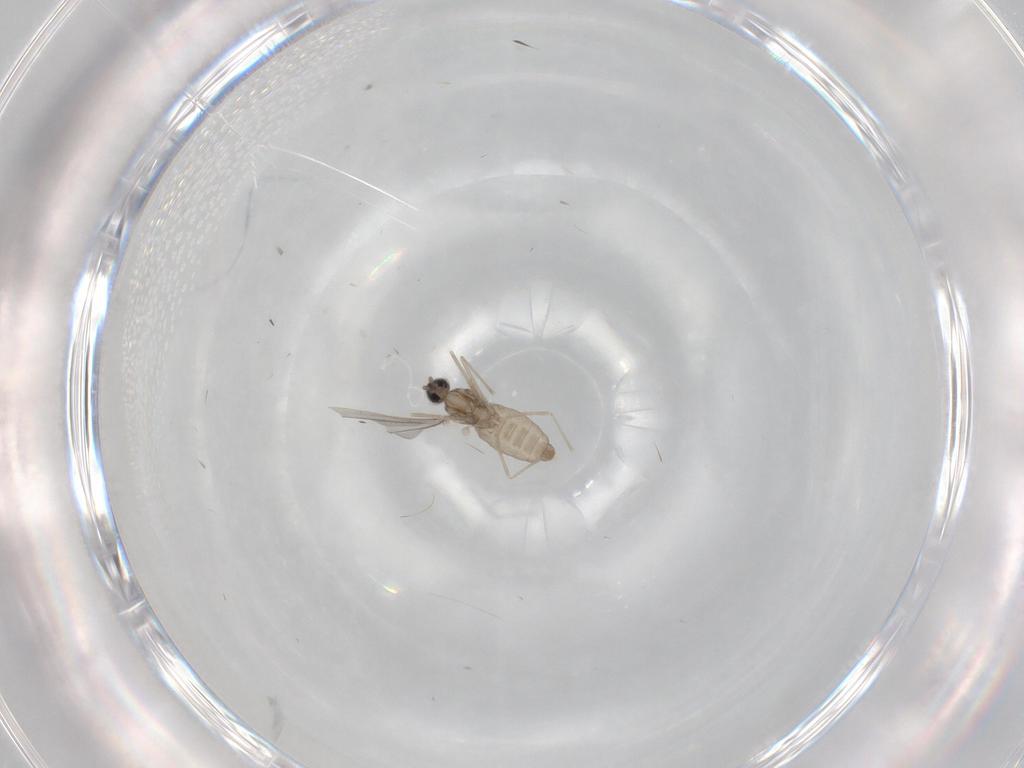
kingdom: Animalia
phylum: Arthropoda
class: Insecta
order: Diptera
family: Cecidomyiidae
